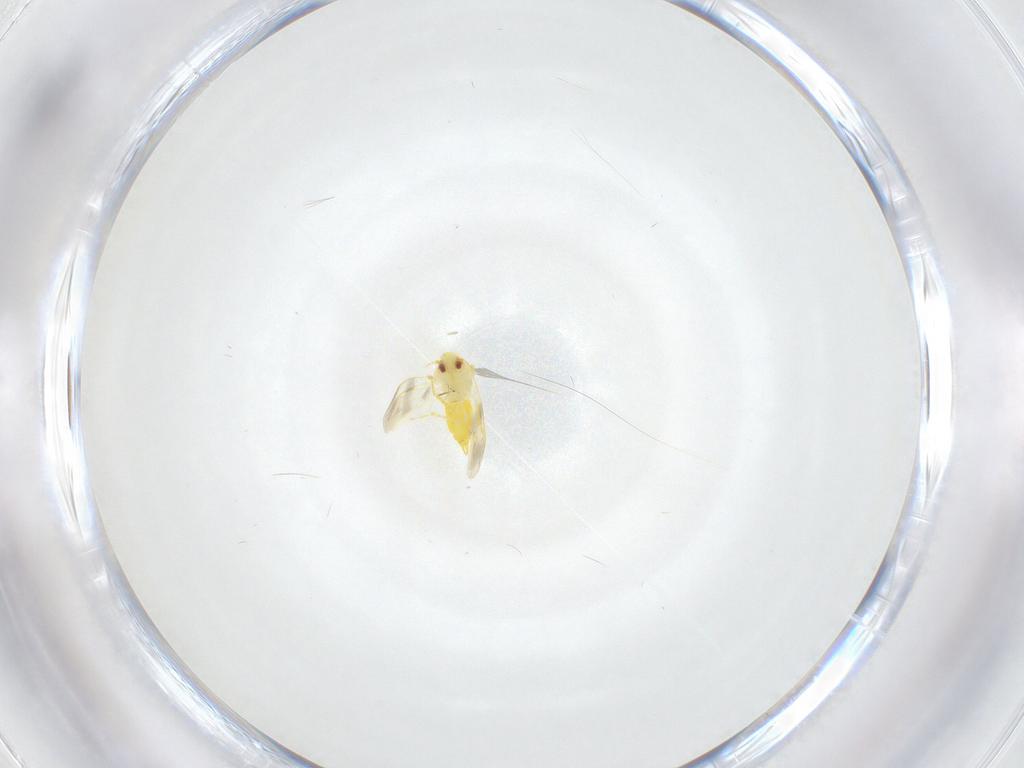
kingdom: Animalia
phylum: Arthropoda
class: Insecta
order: Hemiptera
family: Aleyrodidae
